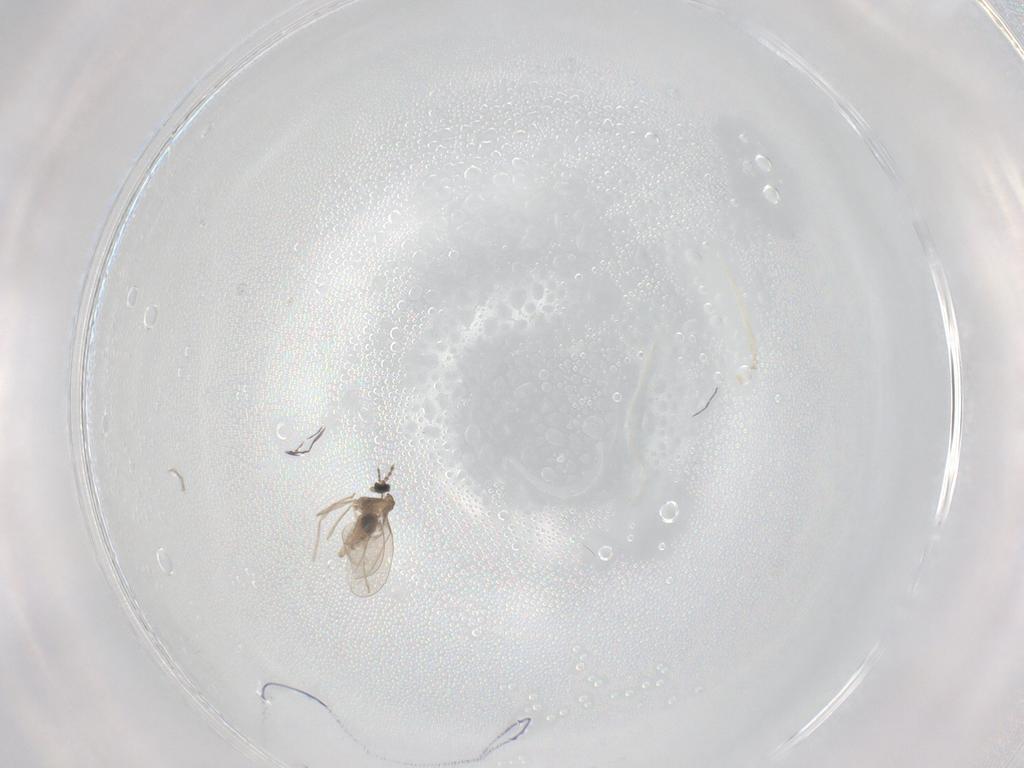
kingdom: Animalia
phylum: Arthropoda
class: Insecta
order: Diptera
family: Cecidomyiidae
